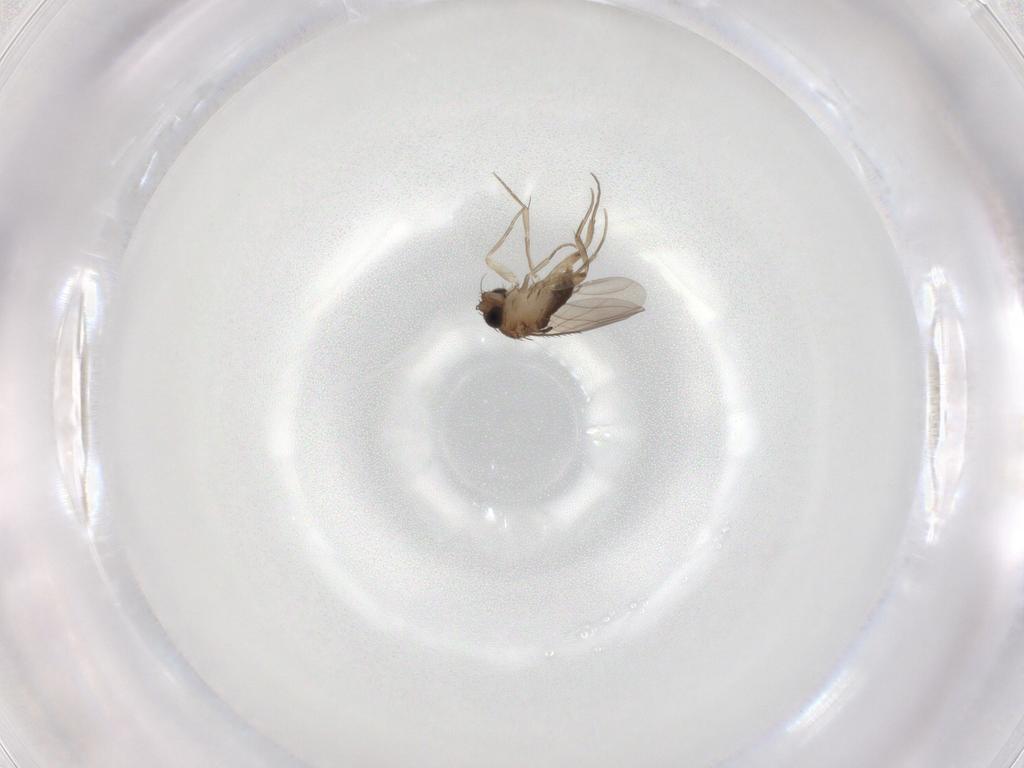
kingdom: Animalia
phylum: Arthropoda
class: Insecta
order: Diptera
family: Phoridae
